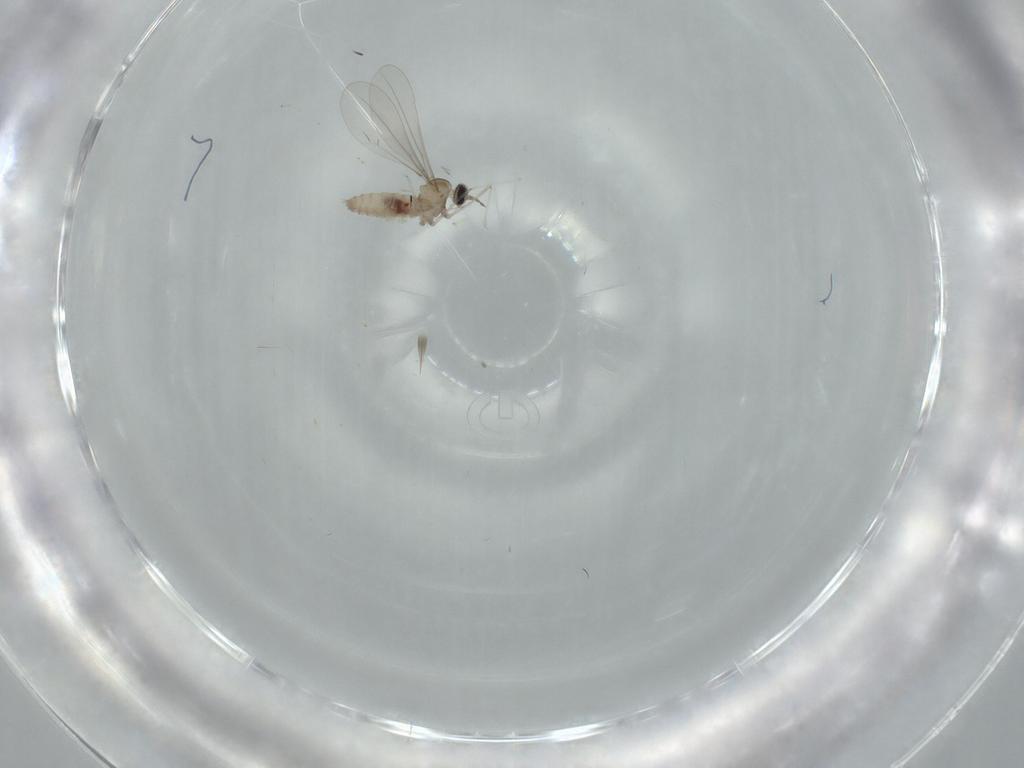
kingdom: Animalia
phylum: Arthropoda
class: Insecta
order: Diptera
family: Cecidomyiidae
